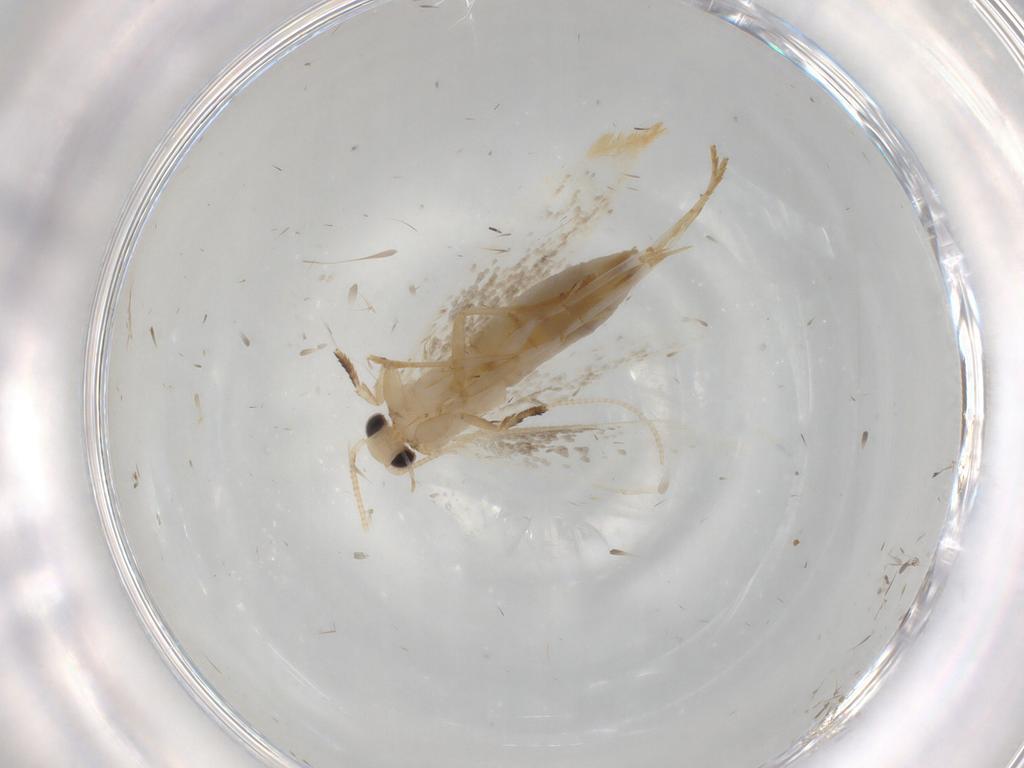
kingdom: Animalia
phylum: Arthropoda
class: Insecta
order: Lepidoptera
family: Tineidae
